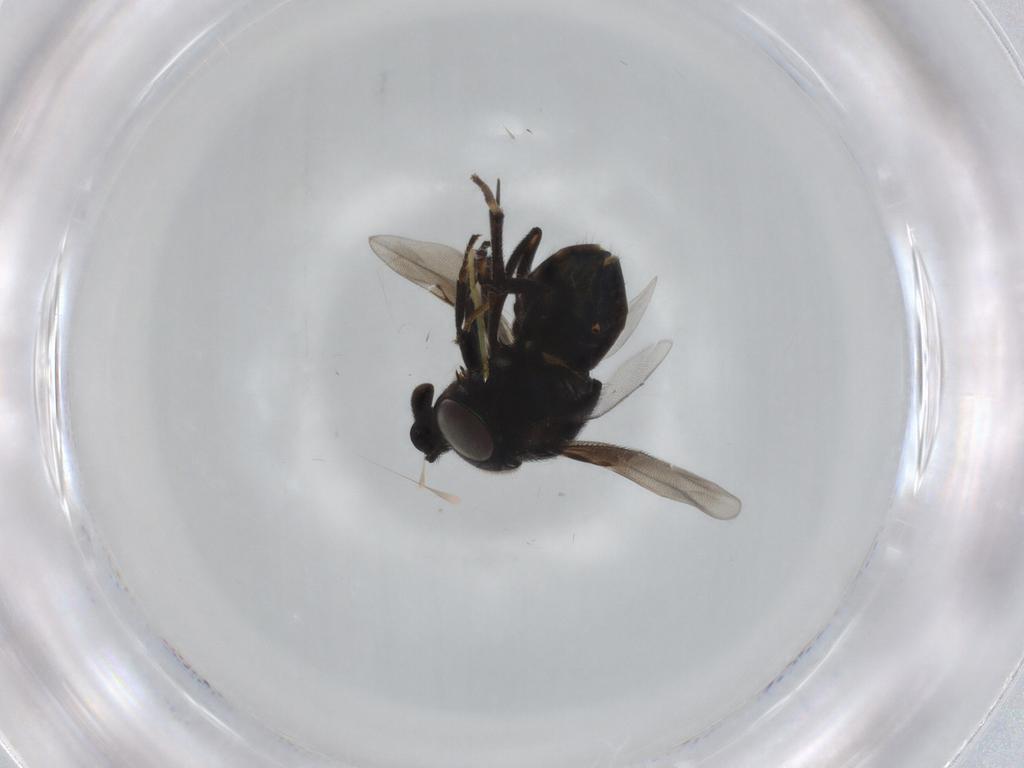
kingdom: Animalia
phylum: Arthropoda
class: Insecta
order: Hymenoptera
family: Encyrtidae
